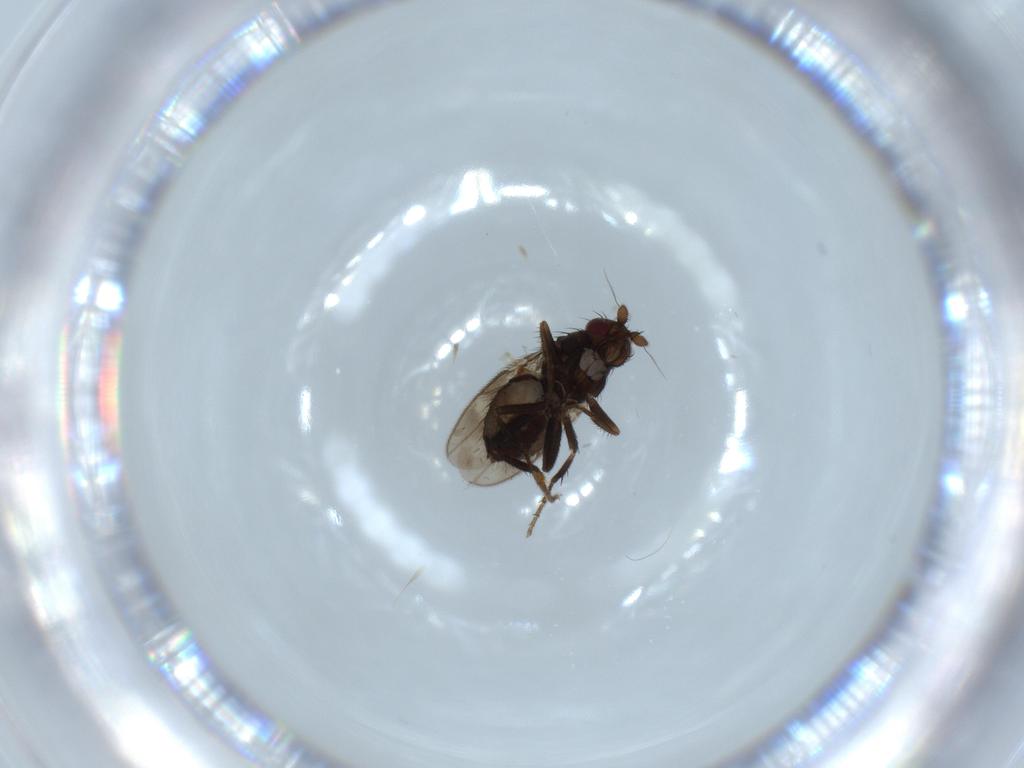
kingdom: Animalia
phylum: Arthropoda
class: Insecta
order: Diptera
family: Sphaeroceridae
